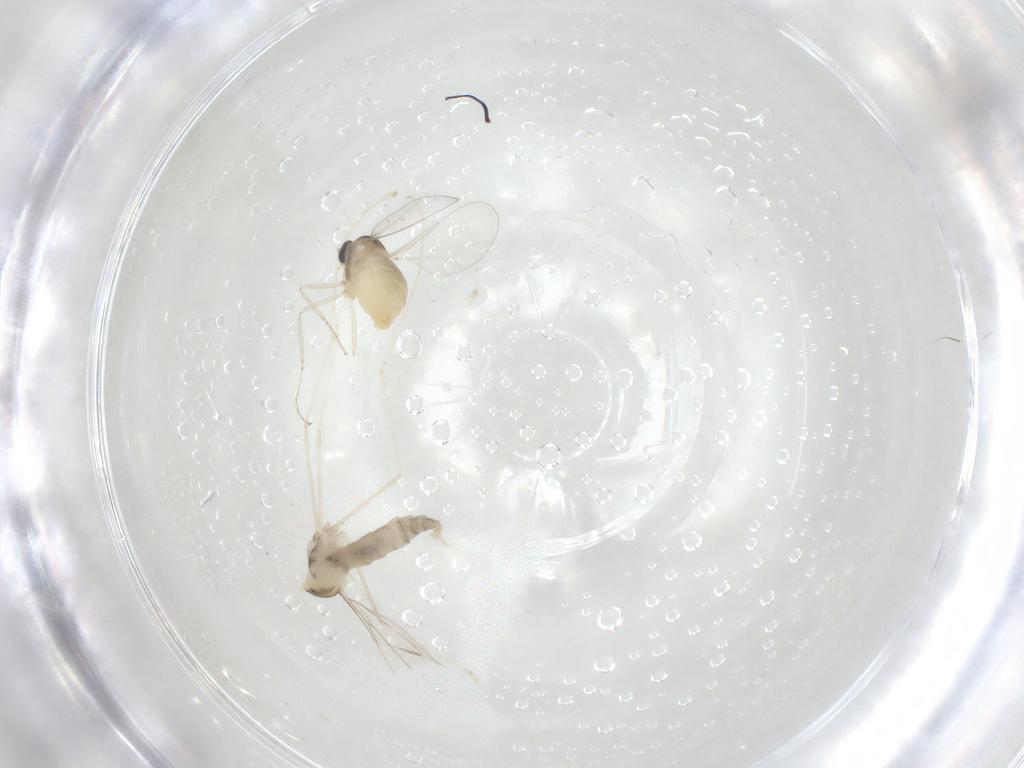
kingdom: Animalia
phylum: Arthropoda
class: Insecta
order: Diptera
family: Cecidomyiidae
